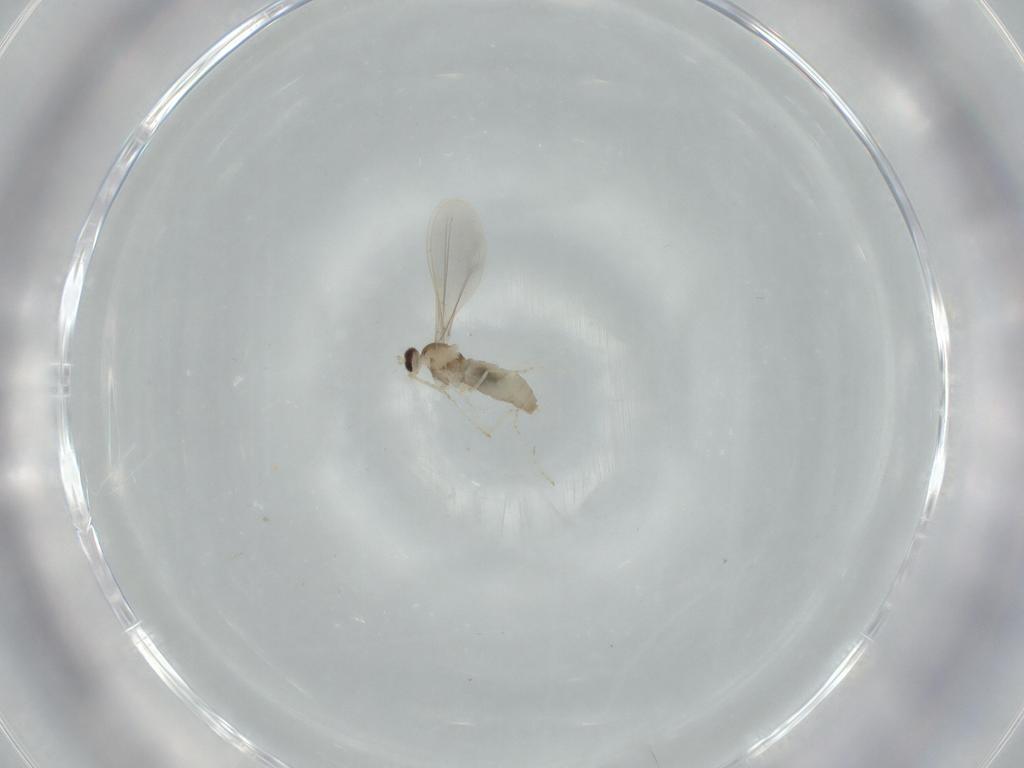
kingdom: Animalia
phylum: Arthropoda
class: Insecta
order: Diptera
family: Cecidomyiidae
